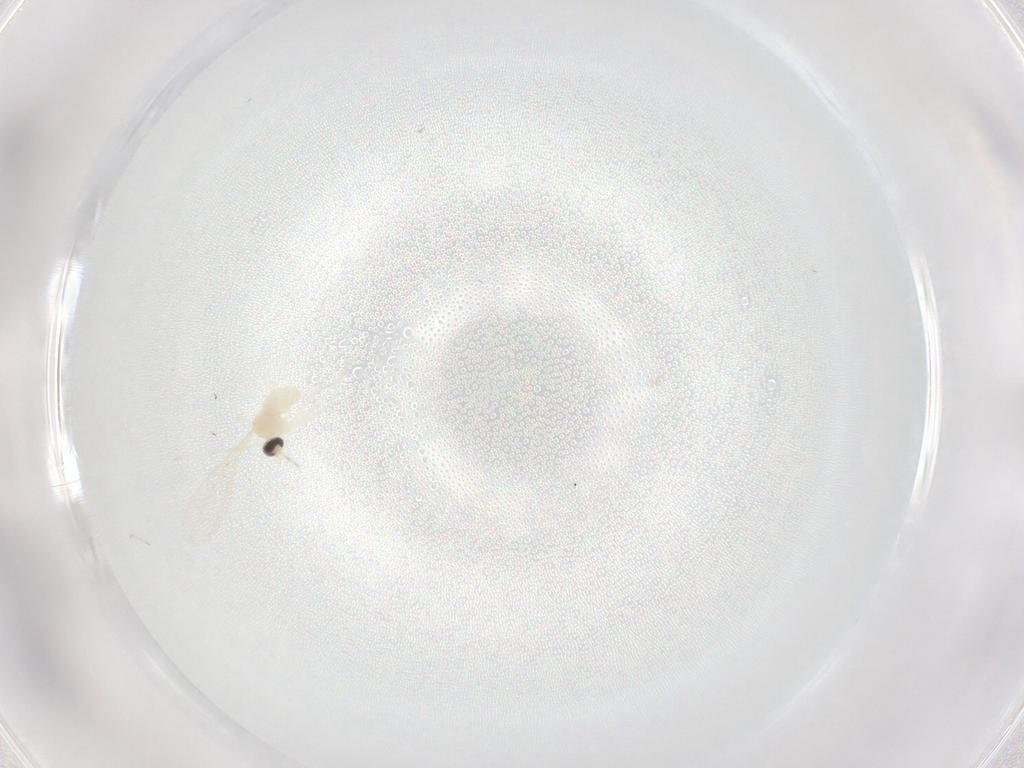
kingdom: Animalia
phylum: Arthropoda
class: Insecta
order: Diptera
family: Cecidomyiidae
